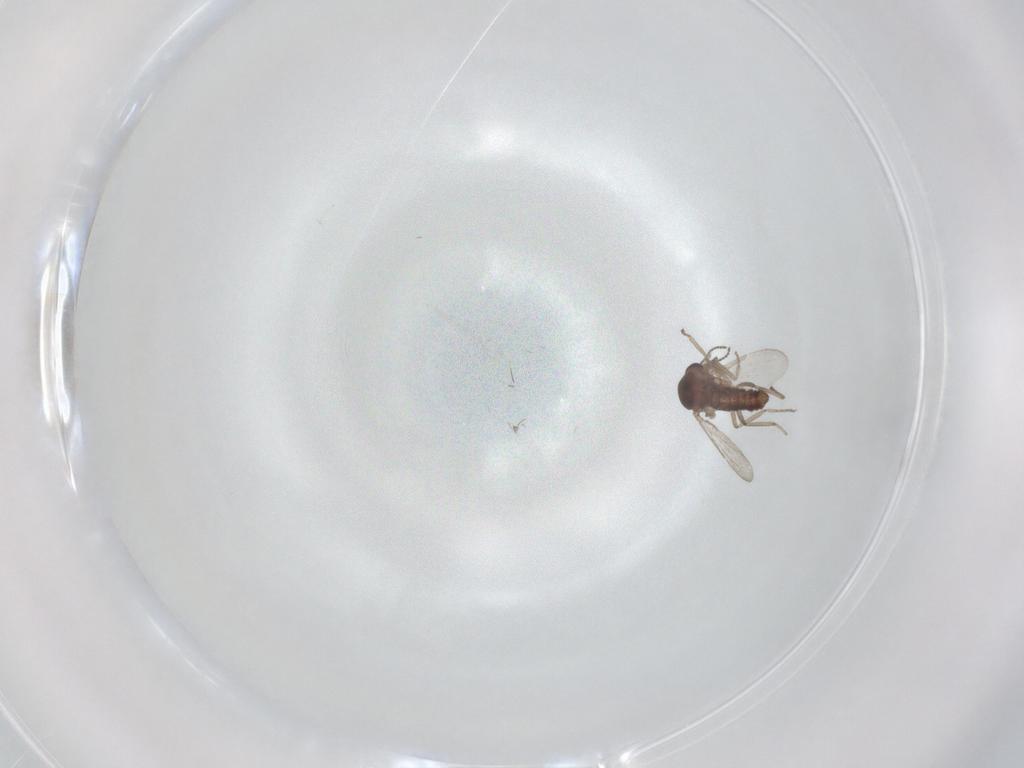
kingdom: Animalia
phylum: Arthropoda
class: Insecta
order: Diptera
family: Ceratopogonidae
